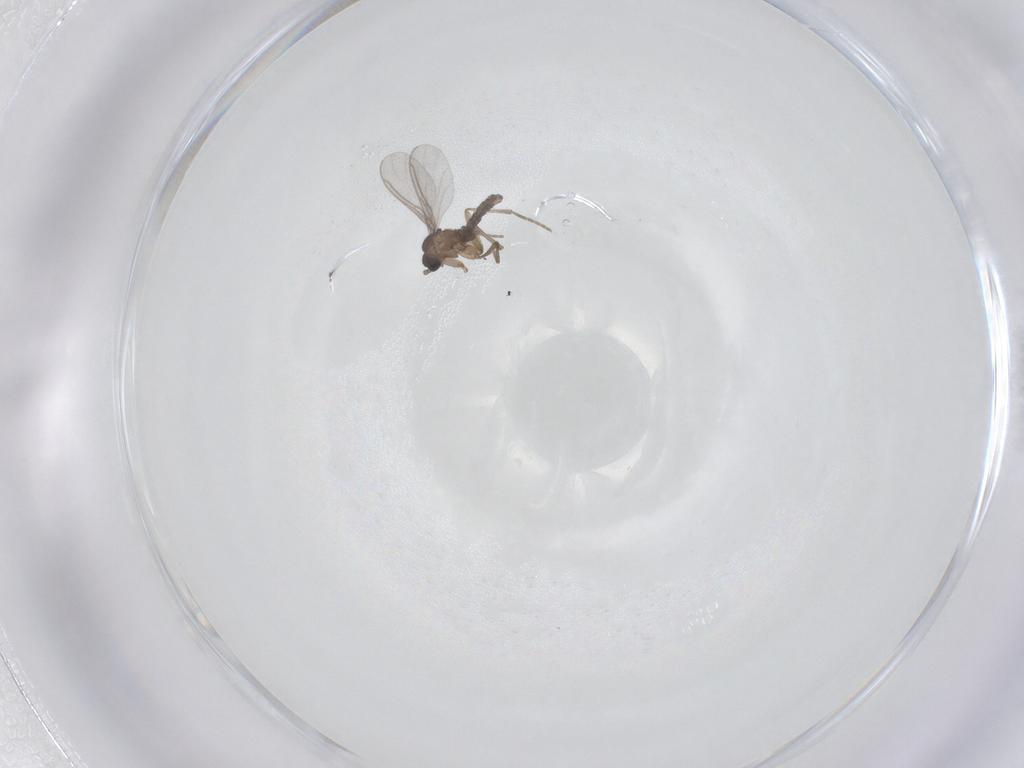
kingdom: Animalia
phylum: Arthropoda
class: Insecta
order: Diptera
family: Sciaridae
